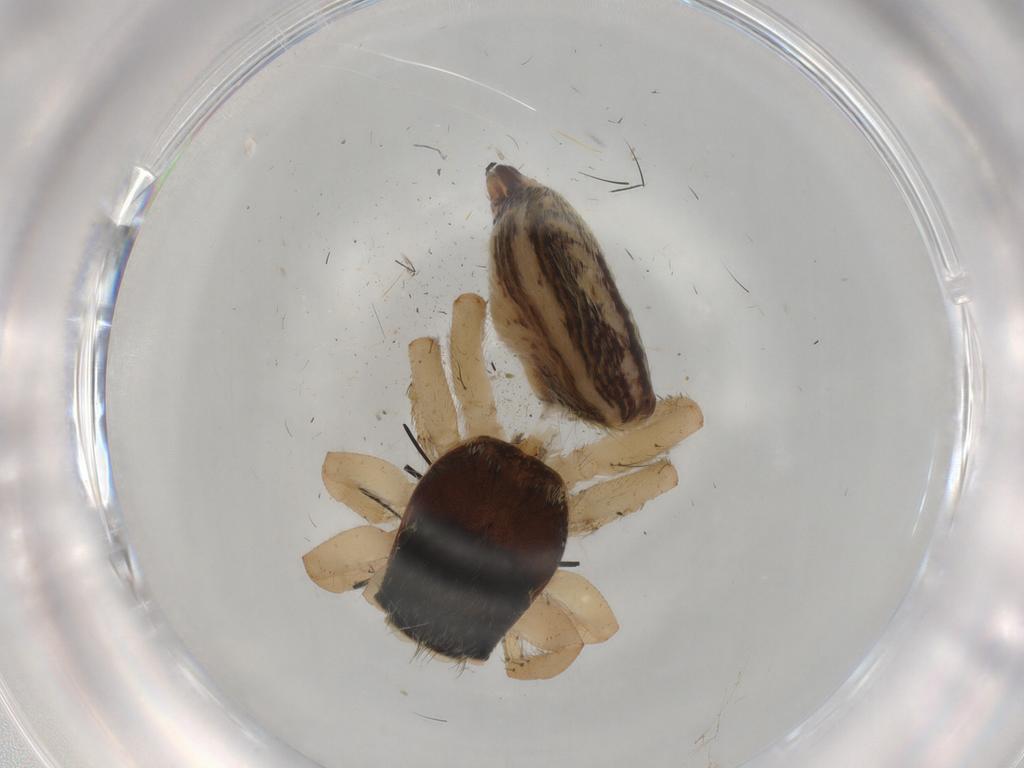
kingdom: Animalia
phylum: Arthropoda
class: Arachnida
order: Araneae
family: Salticidae
